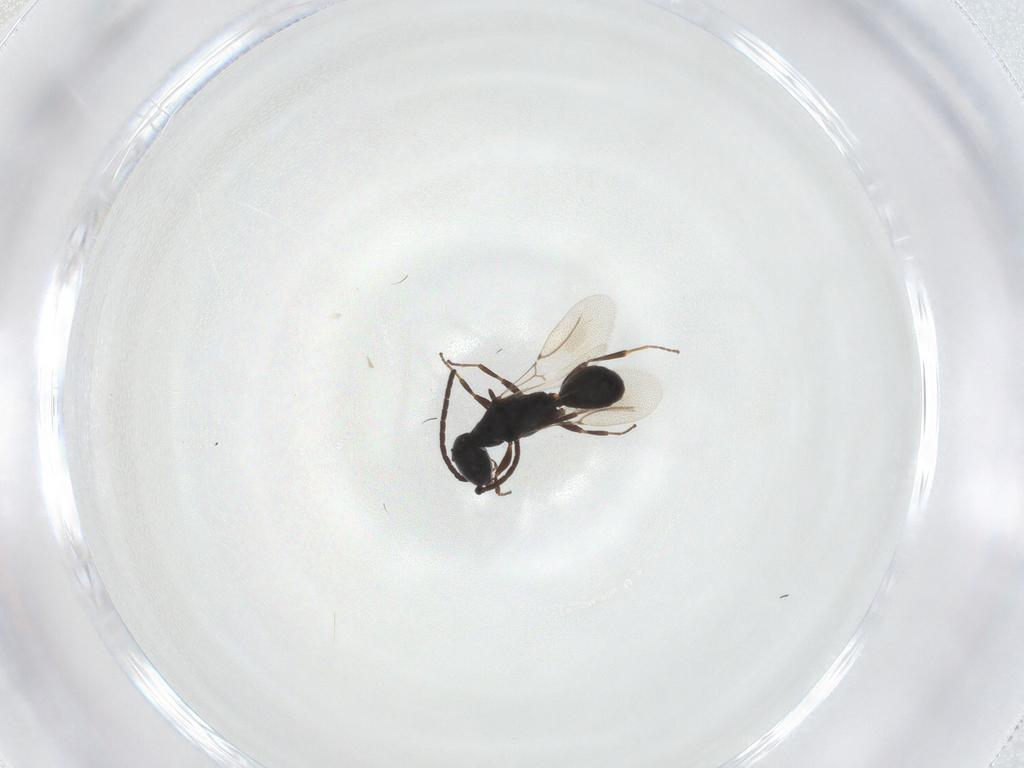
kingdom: Animalia
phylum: Arthropoda
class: Insecta
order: Hymenoptera
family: Bethylidae
